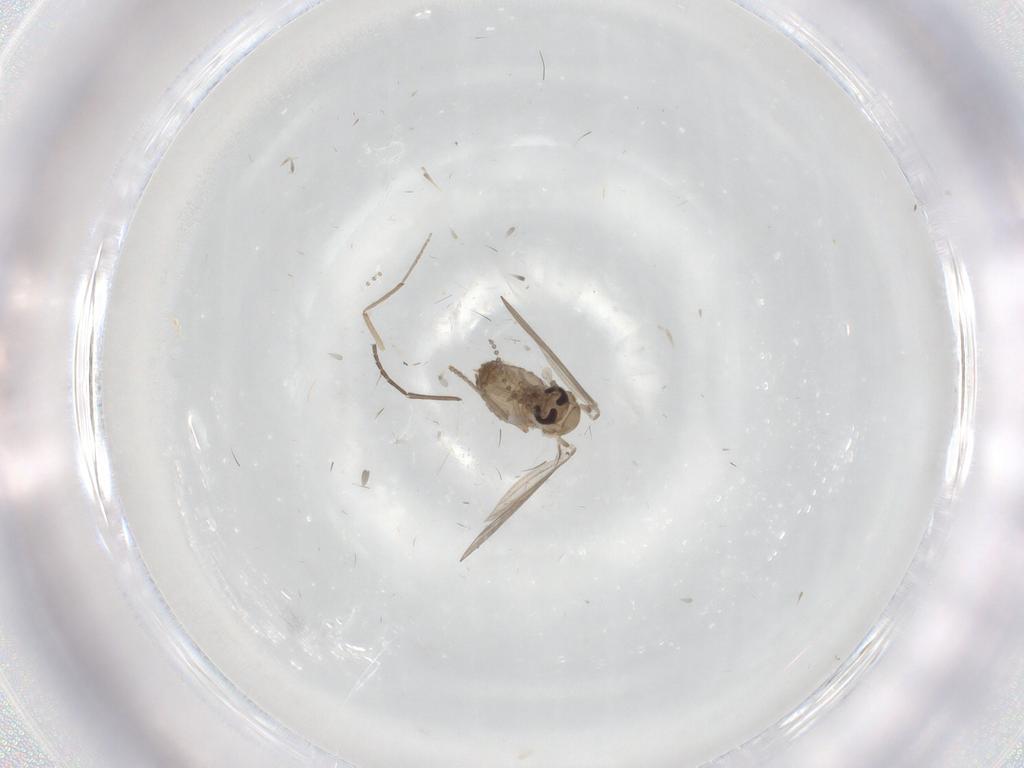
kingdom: Animalia
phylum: Arthropoda
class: Insecta
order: Diptera
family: Psychodidae
